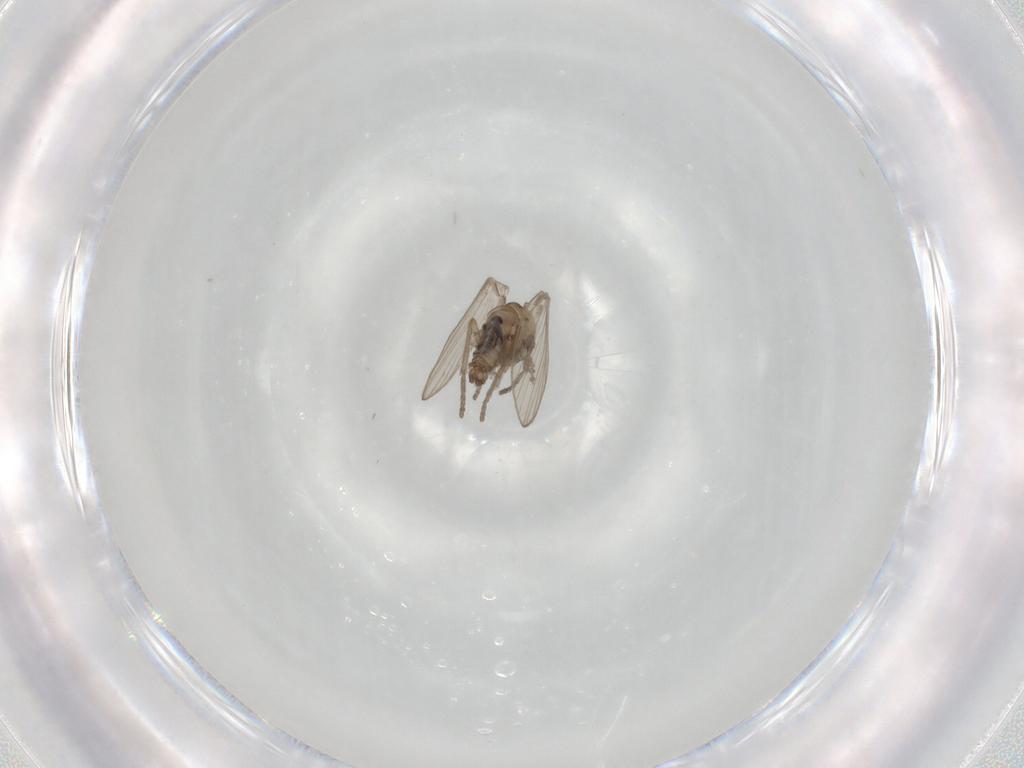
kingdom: Animalia
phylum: Arthropoda
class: Insecta
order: Diptera
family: Psychodidae
